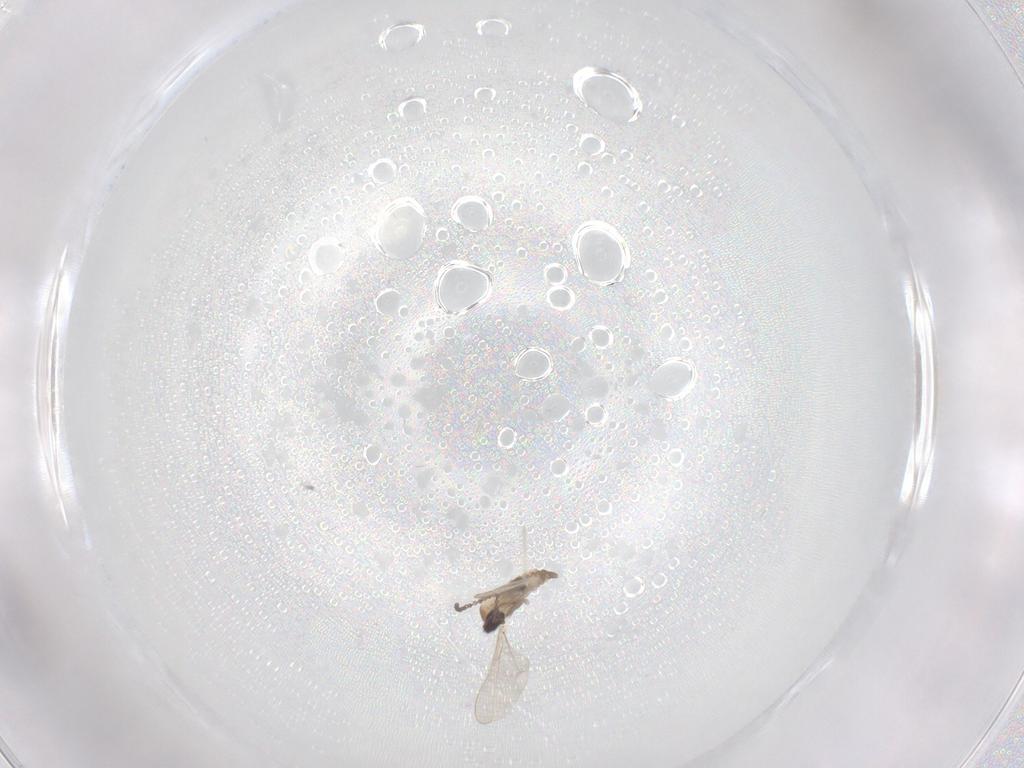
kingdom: Animalia
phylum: Arthropoda
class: Insecta
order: Diptera
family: Cecidomyiidae
